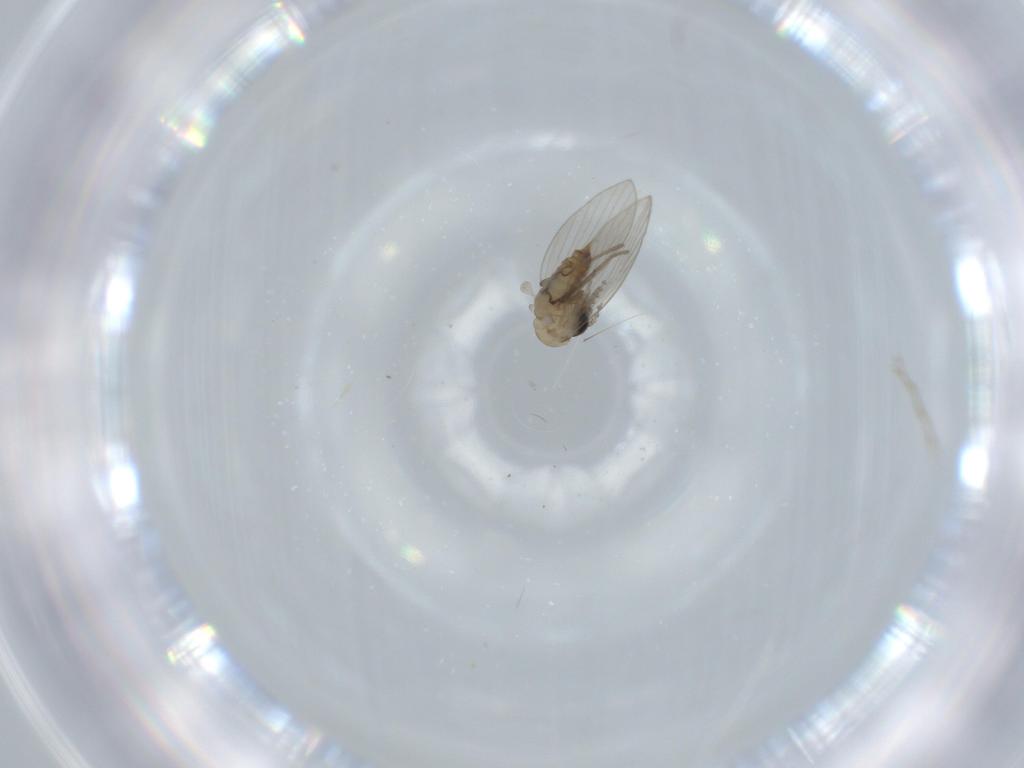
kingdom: Animalia
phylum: Arthropoda
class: Insecta
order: Diptera
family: Psychodidae
